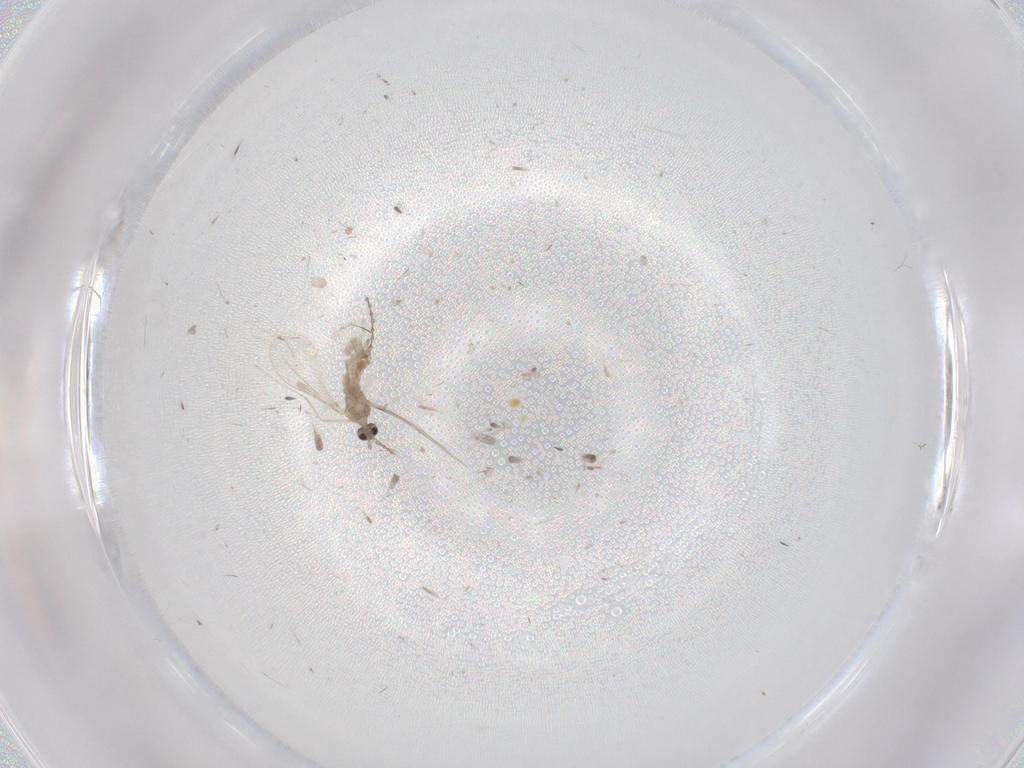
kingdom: Animalia
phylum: Arthropoda
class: Insecta
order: Diptera
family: Cecidomyiidae
